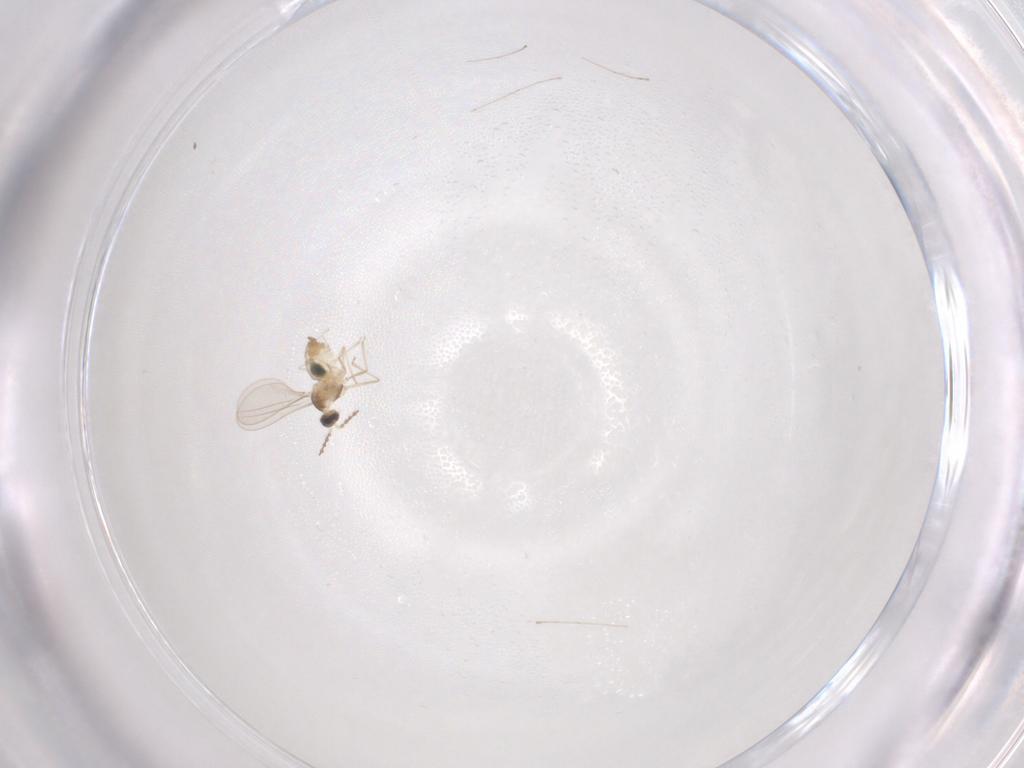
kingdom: Animalia
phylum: Arthropoda
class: Insecta
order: Diptera
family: Cecidomyiidae
